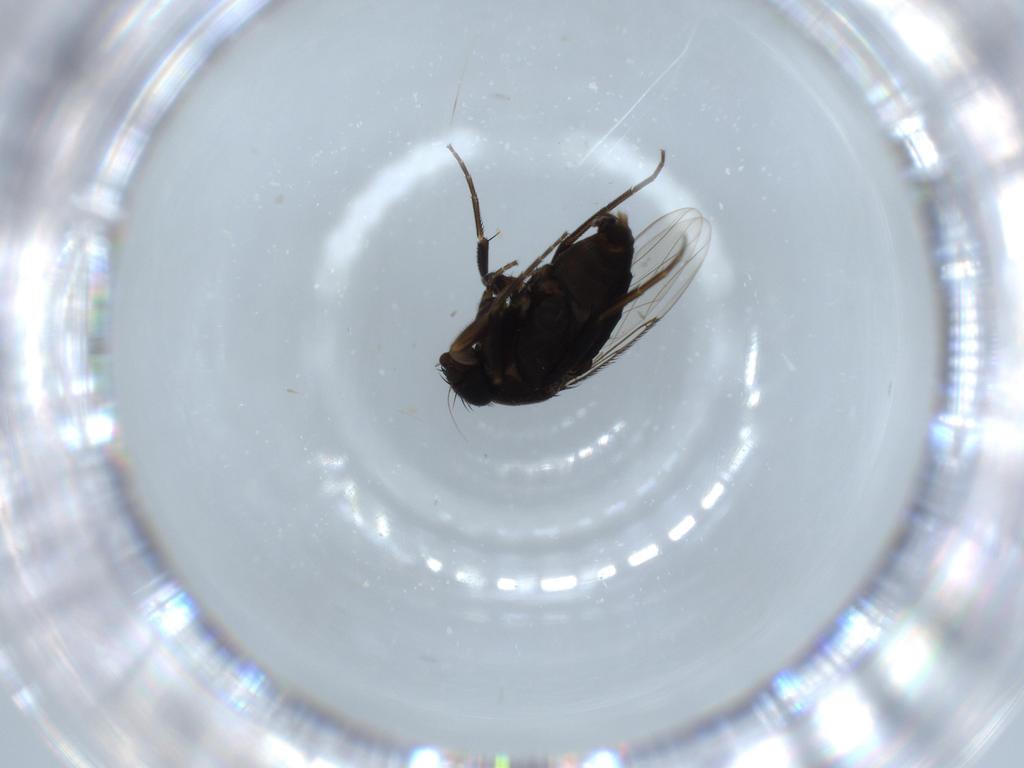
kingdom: Animalia
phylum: Arthropoda
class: Insecta
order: Diptera
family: Phoridae
